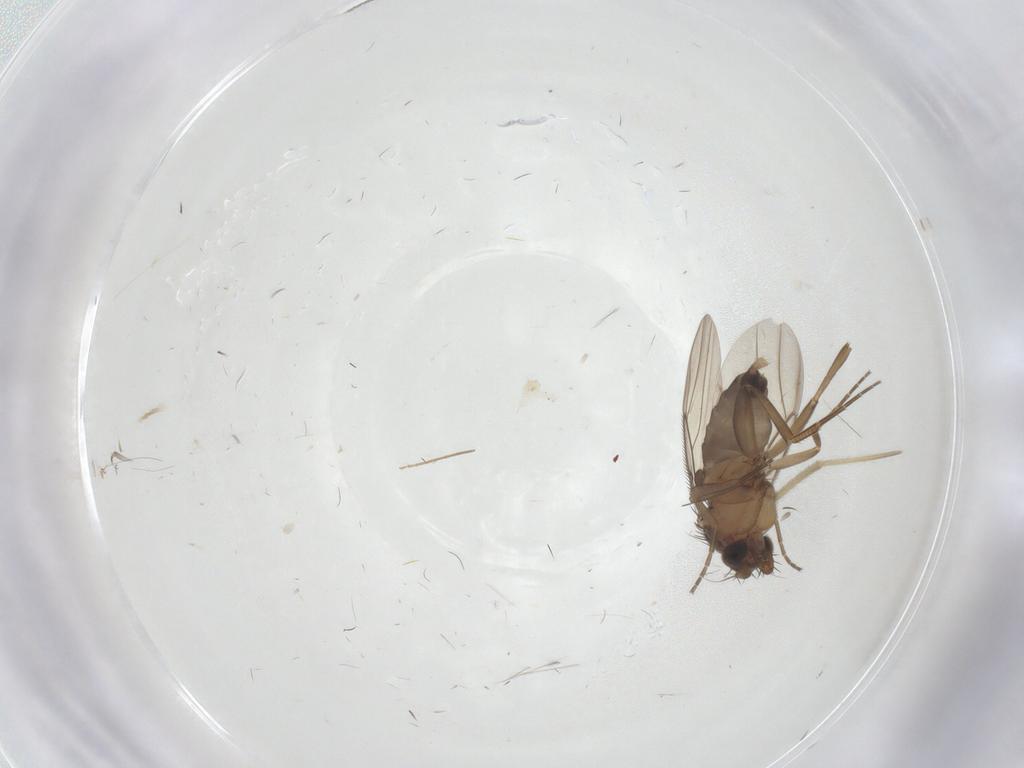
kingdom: Animalia
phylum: Arthropoda
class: Insecta
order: Diptera
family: Phoridae
